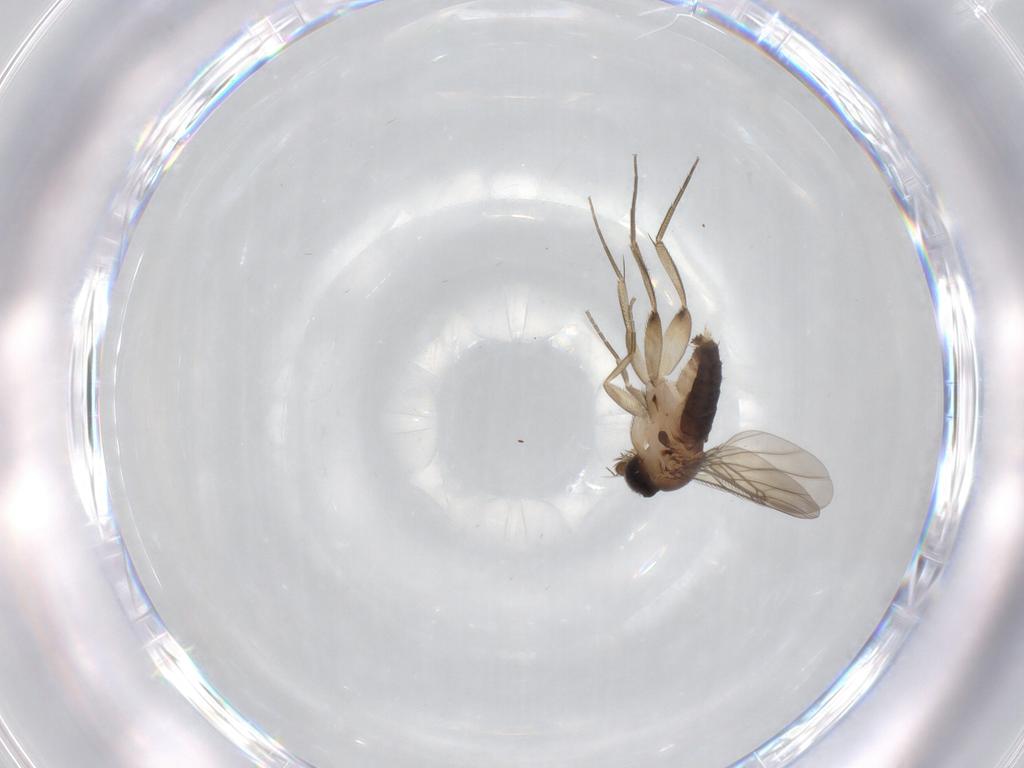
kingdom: Animalia
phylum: Arthropoda
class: Insecta
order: Diptera
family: Phoridae
